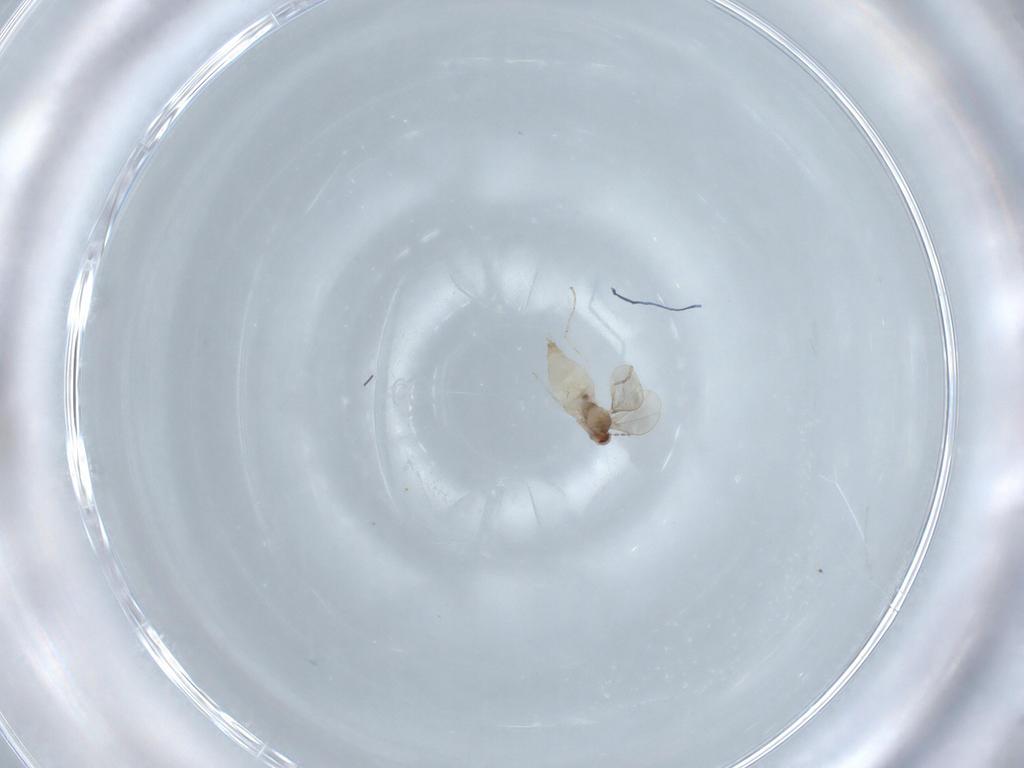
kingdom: Animalia
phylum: Arthropoda
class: Insecta
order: Diptera
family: Cecidomyiidae
